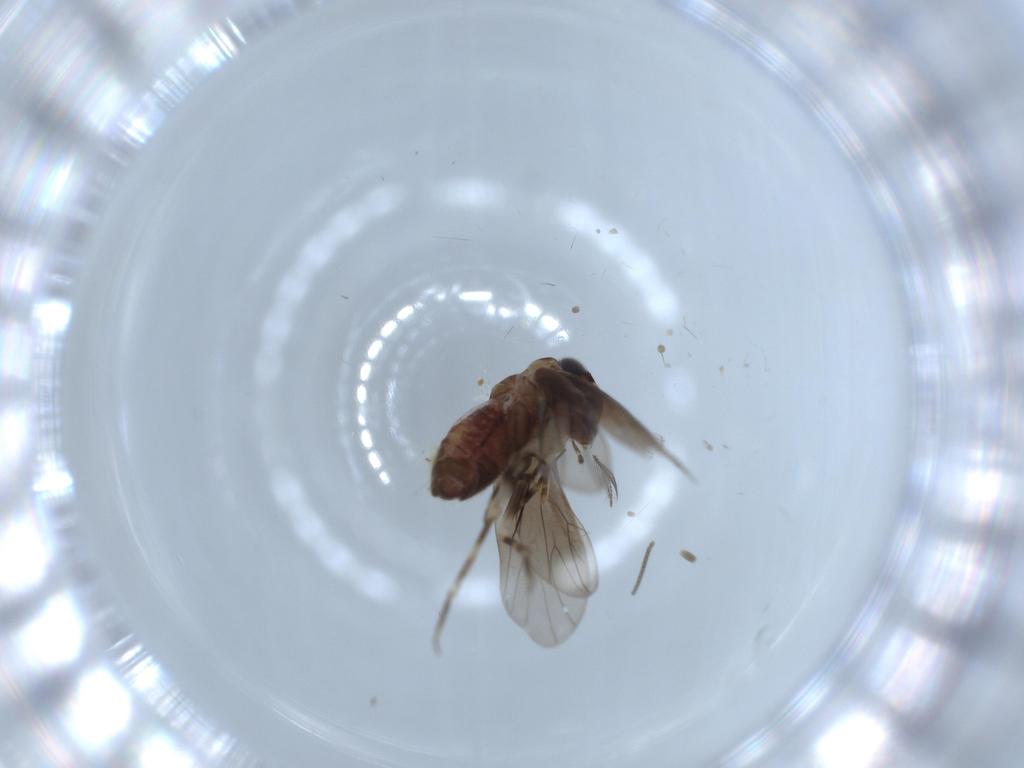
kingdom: Animalia
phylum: Arthropoda
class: Insecta
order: Psocodea
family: Amphientomidae
